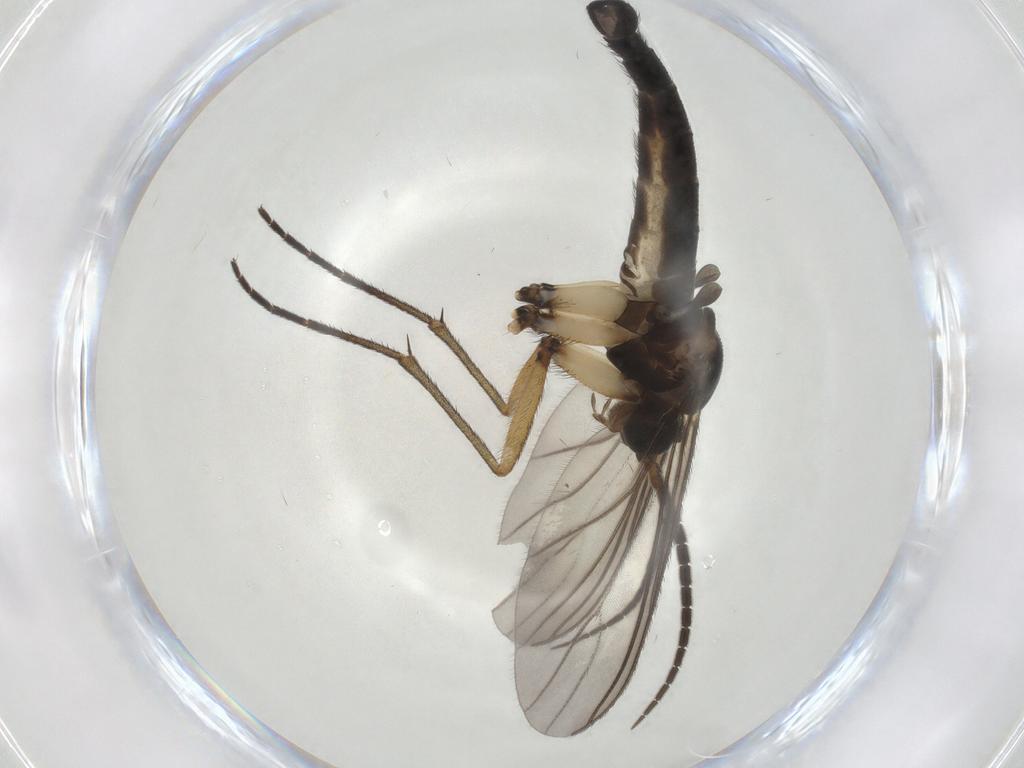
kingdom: Animalia
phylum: Arthropoda
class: Insecta
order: Diptera
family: Sciaridae
